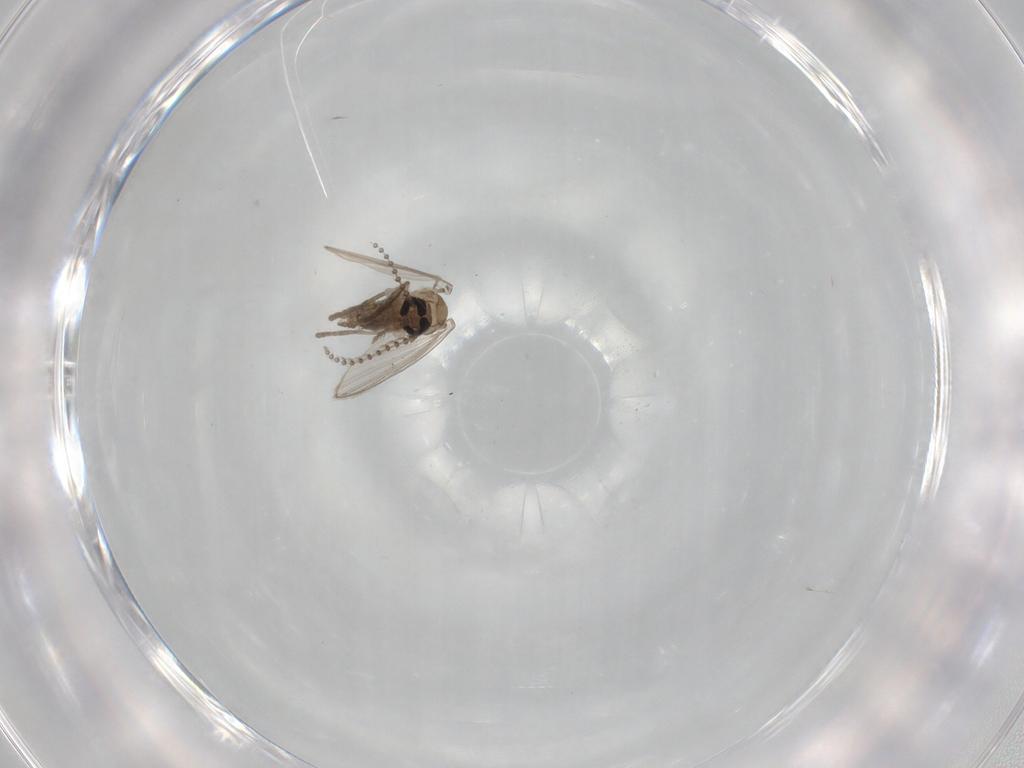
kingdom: Animalia
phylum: Arthropoda
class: Insecta
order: Diptera
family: Psychodidae
